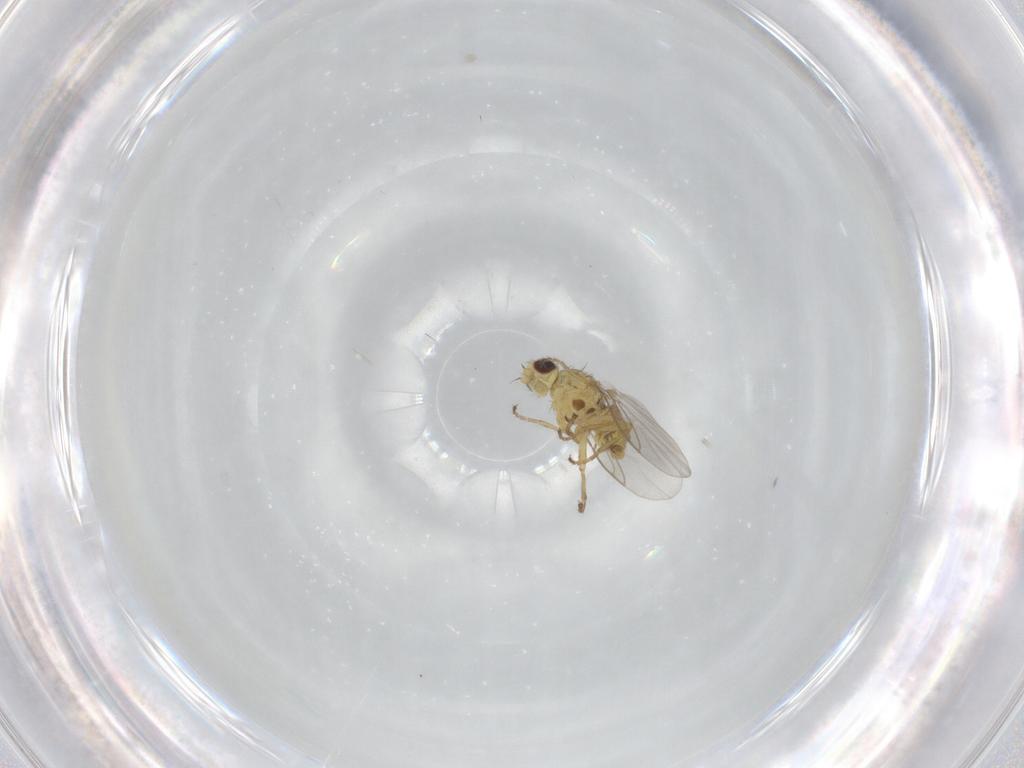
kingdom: Animalia
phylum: Arthropoda
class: Insecta
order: Diptera
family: Agromyzidae
